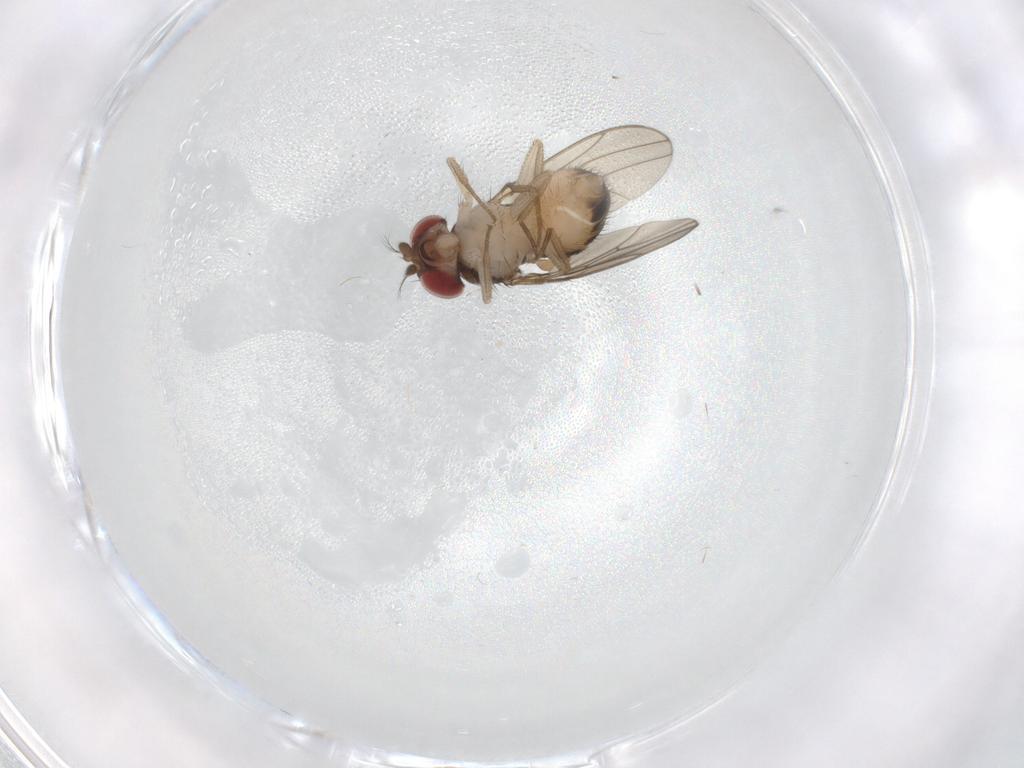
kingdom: Animalia
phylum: Arthropoda
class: Insecta
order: Diptera
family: Drosophilidae
